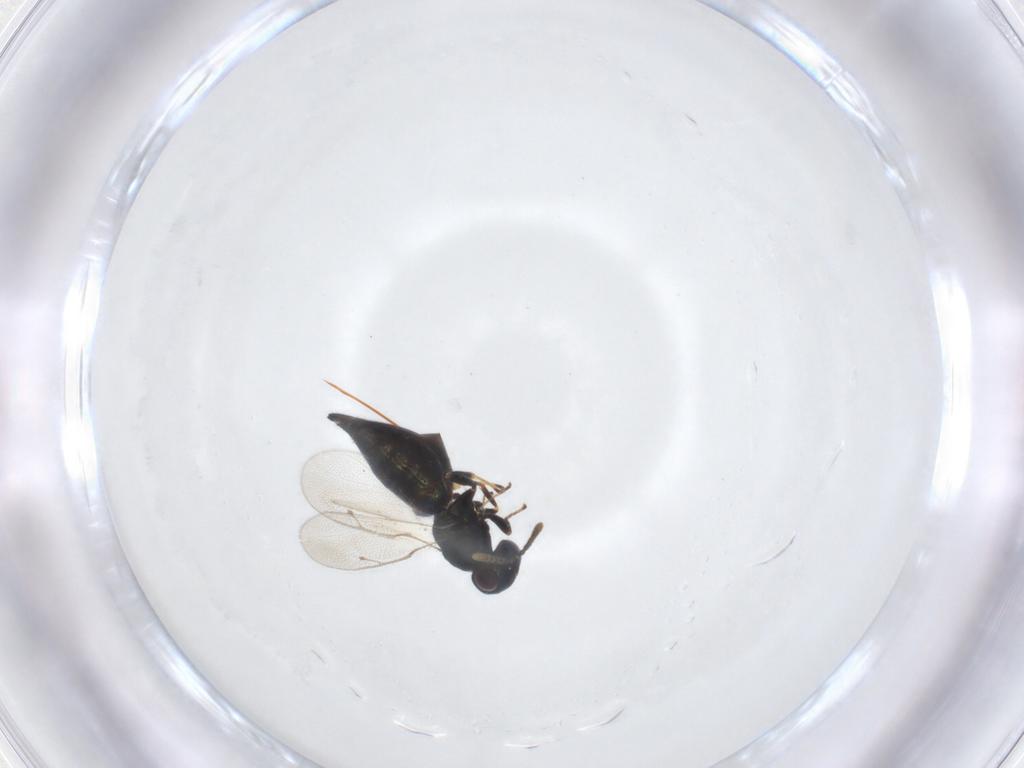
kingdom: Animalia
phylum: Arthropoda
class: Insecta
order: Hymenoptera
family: Pteromalidae
